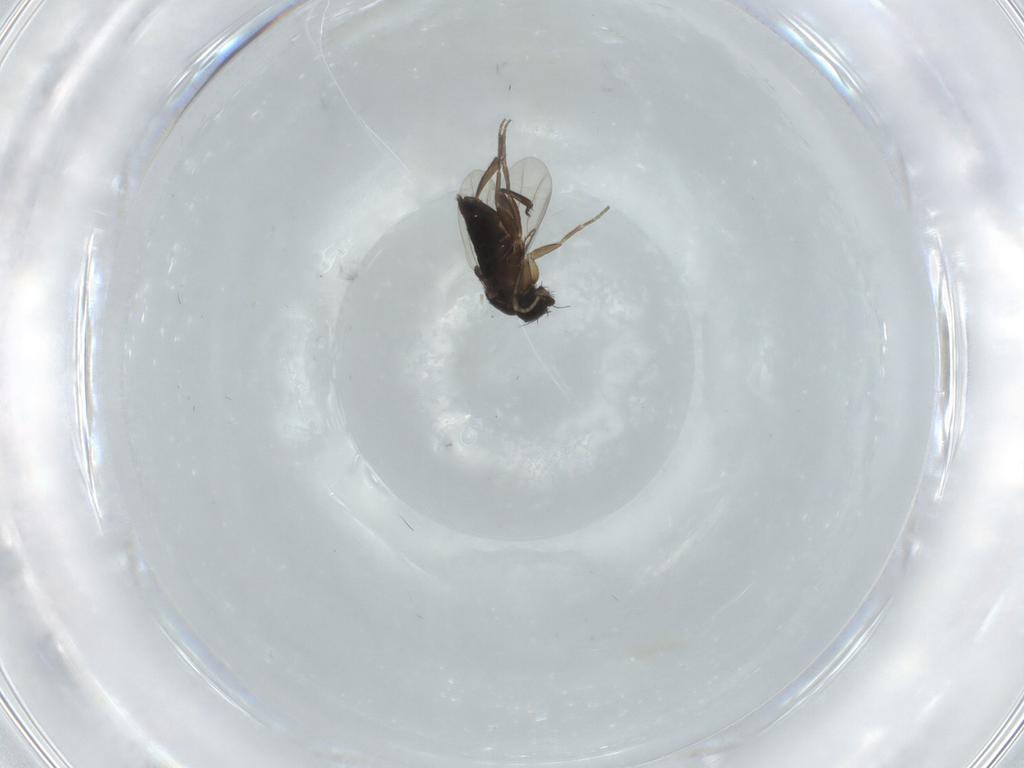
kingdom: Animalia
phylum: Arthropoda
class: Insecta
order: Diptera
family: Phoridae
